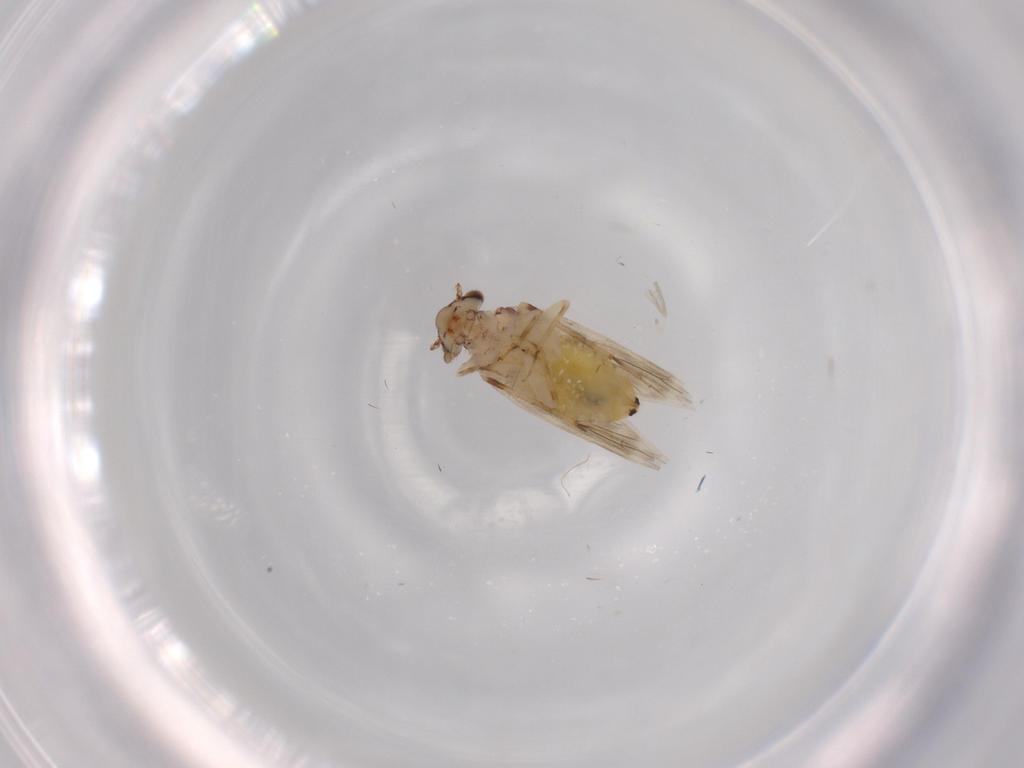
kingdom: Animalia
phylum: Arthropoda
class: Insecta
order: Psocodea
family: Lepidopsocidae
